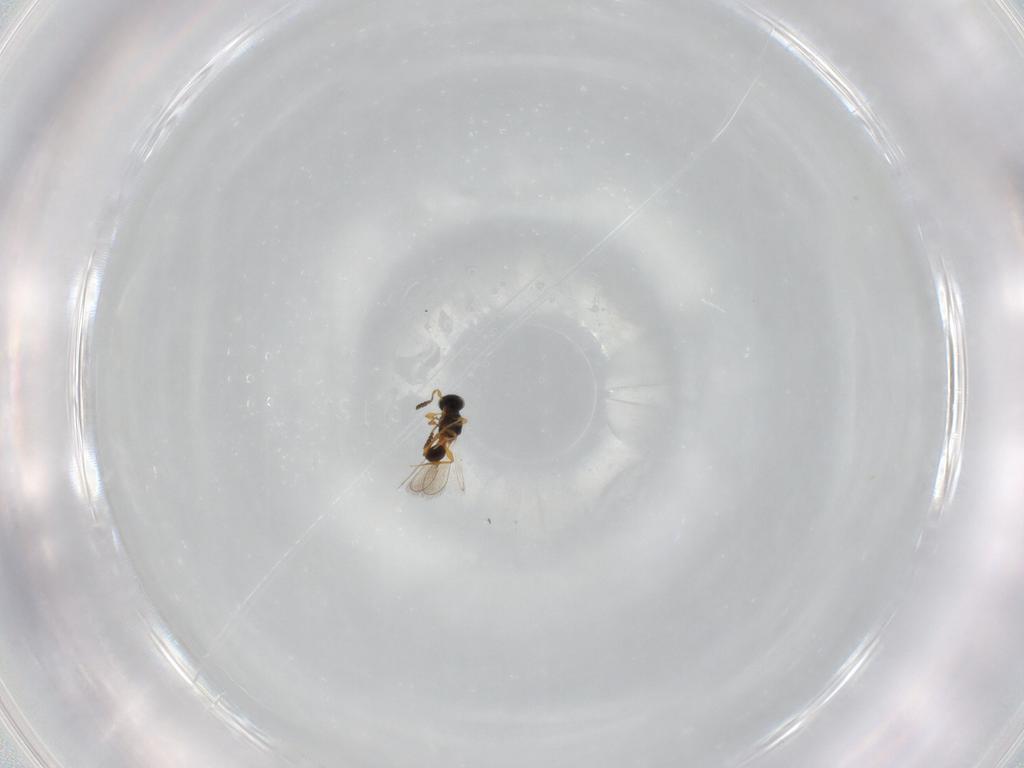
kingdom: Animalia
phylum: Arthropoda
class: Insecta
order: Hymenoptera
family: Platygastridae
